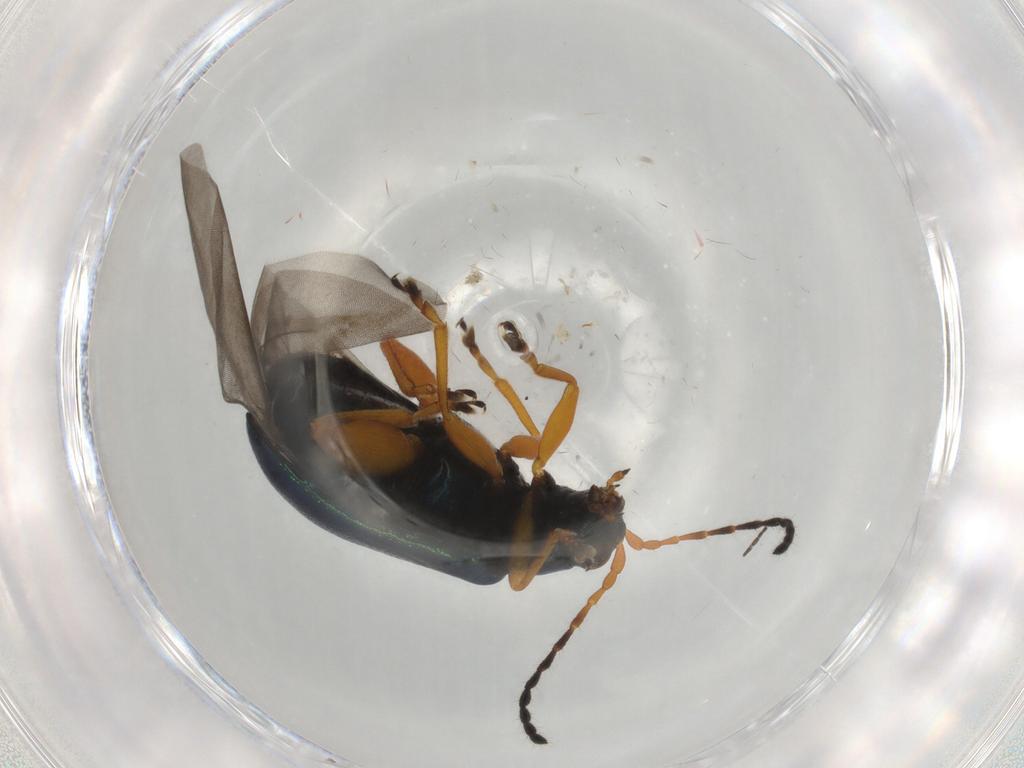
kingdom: Animalia
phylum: Arthropoda
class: Insecta
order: Coleoptera
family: Chrysomelidae
